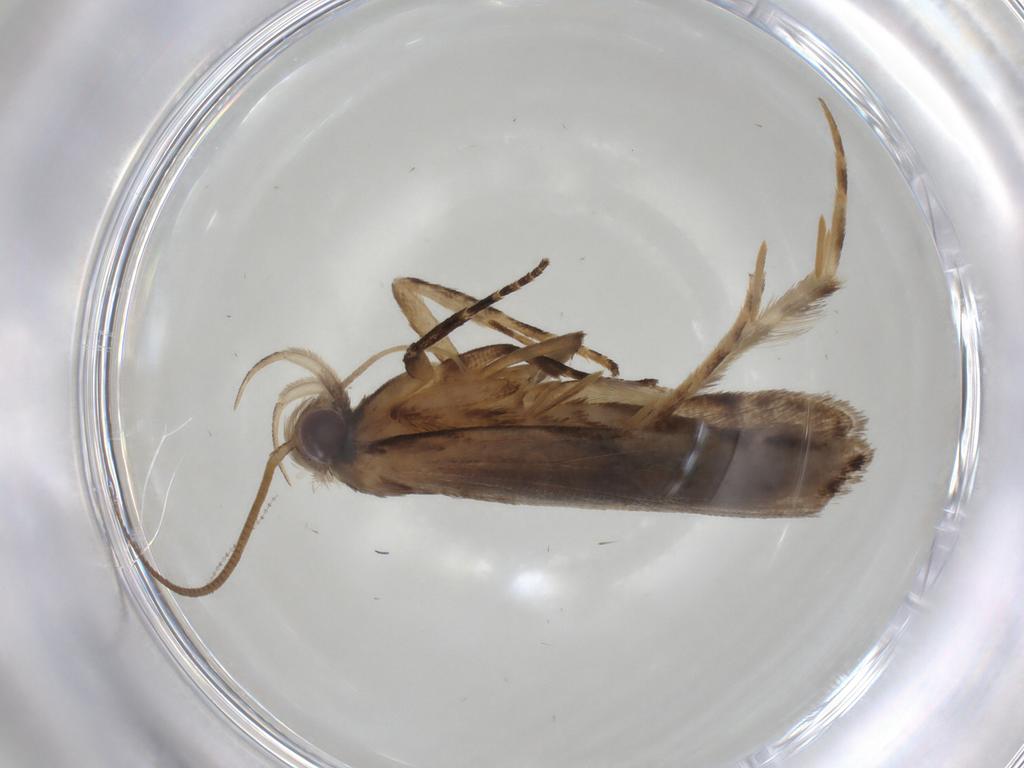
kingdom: Animalia
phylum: Arthropoda
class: Insecta
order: Lepidoptera
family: Gelechiidae
